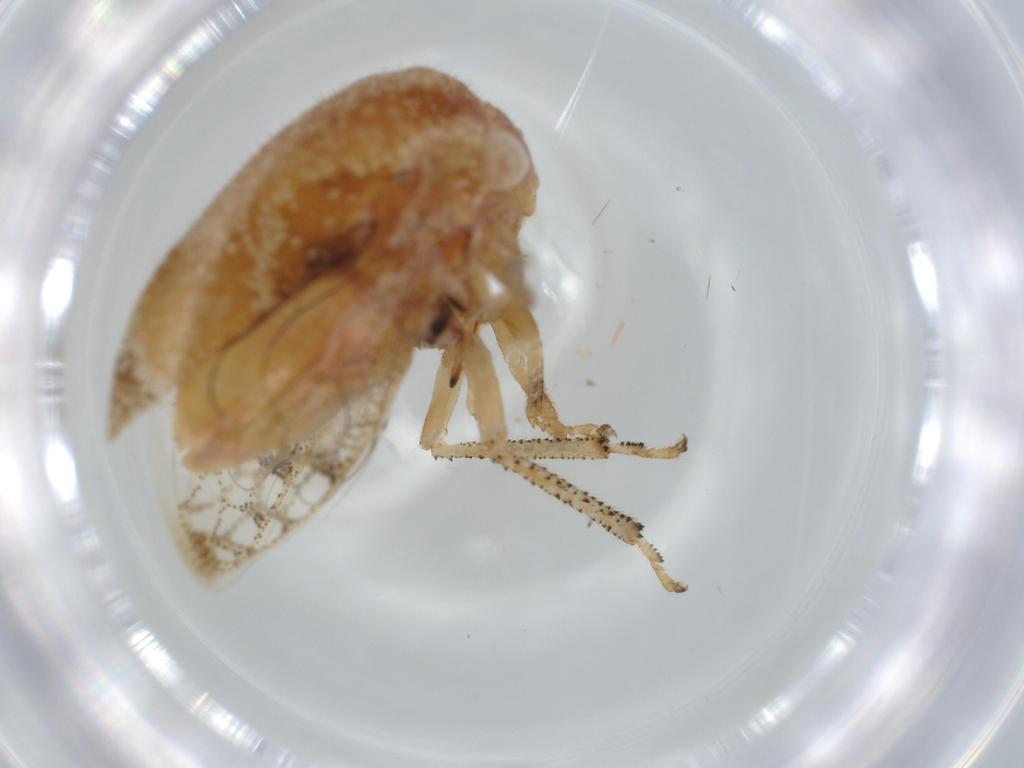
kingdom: Animalia
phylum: Arthropoda
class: Insecta
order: Hemiptera
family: Membracidae
